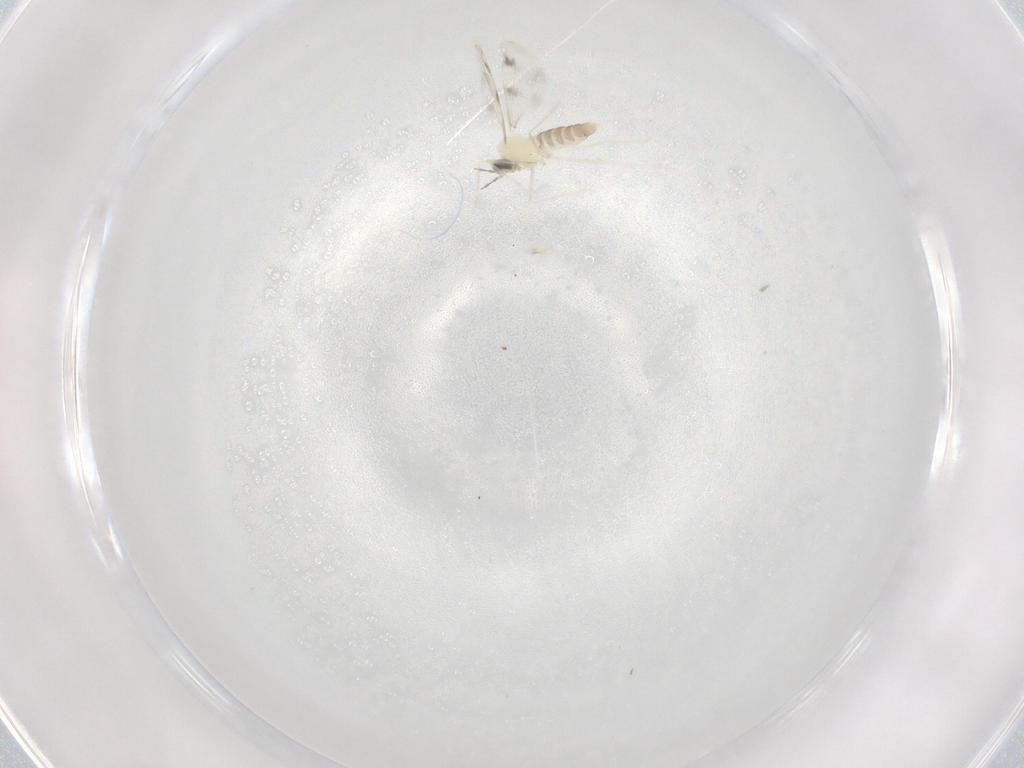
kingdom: Animalia
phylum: Arthropoda
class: Insecta
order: Diptera
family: Cecidomyiidae
